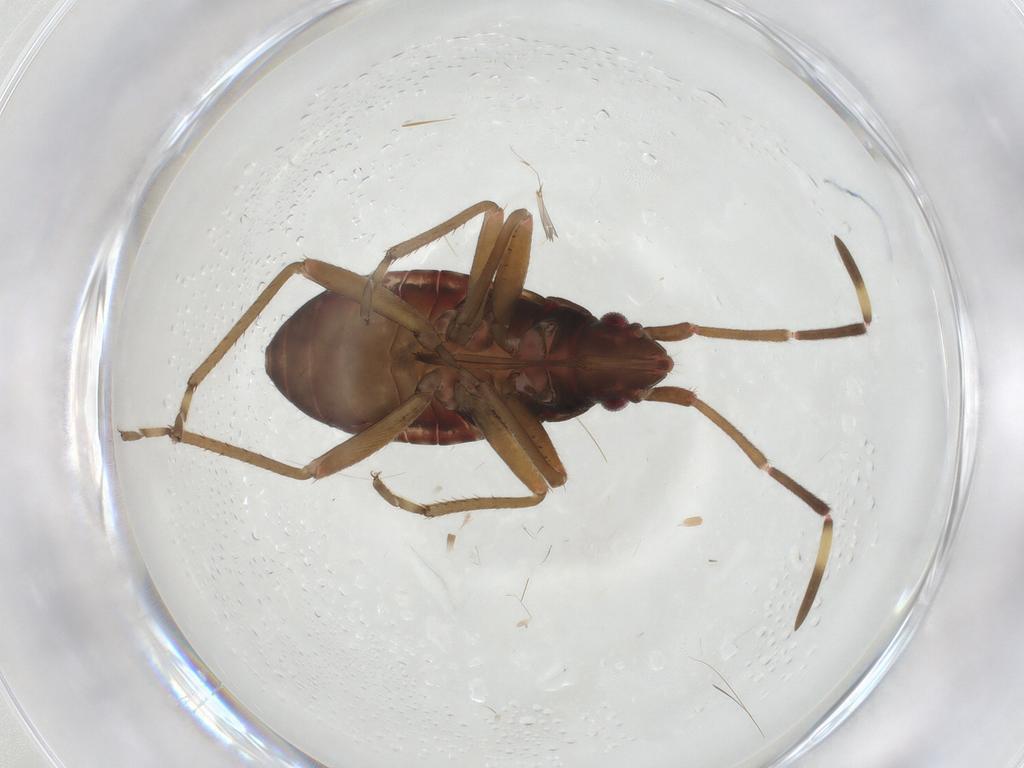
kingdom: Animalia
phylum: Arthropoda
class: Insecta
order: Hemiptera
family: Rhyparochromidae
